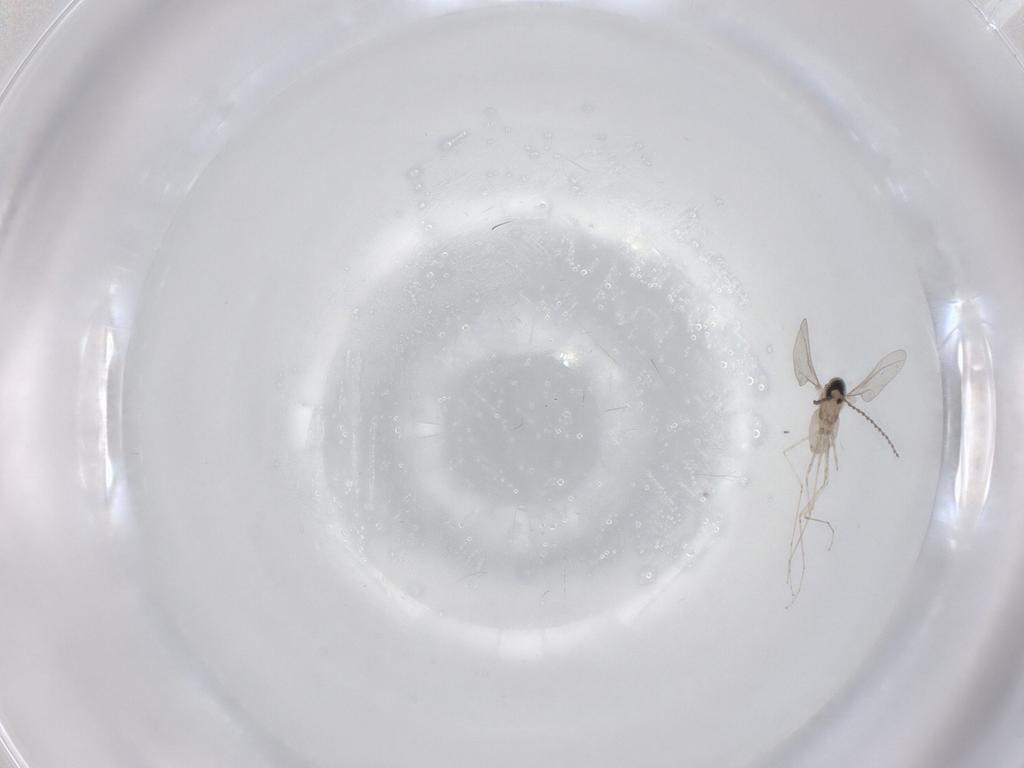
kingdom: Animalia
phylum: Arthropoda
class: Insecta
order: Diptera
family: Cecidomyiidae
